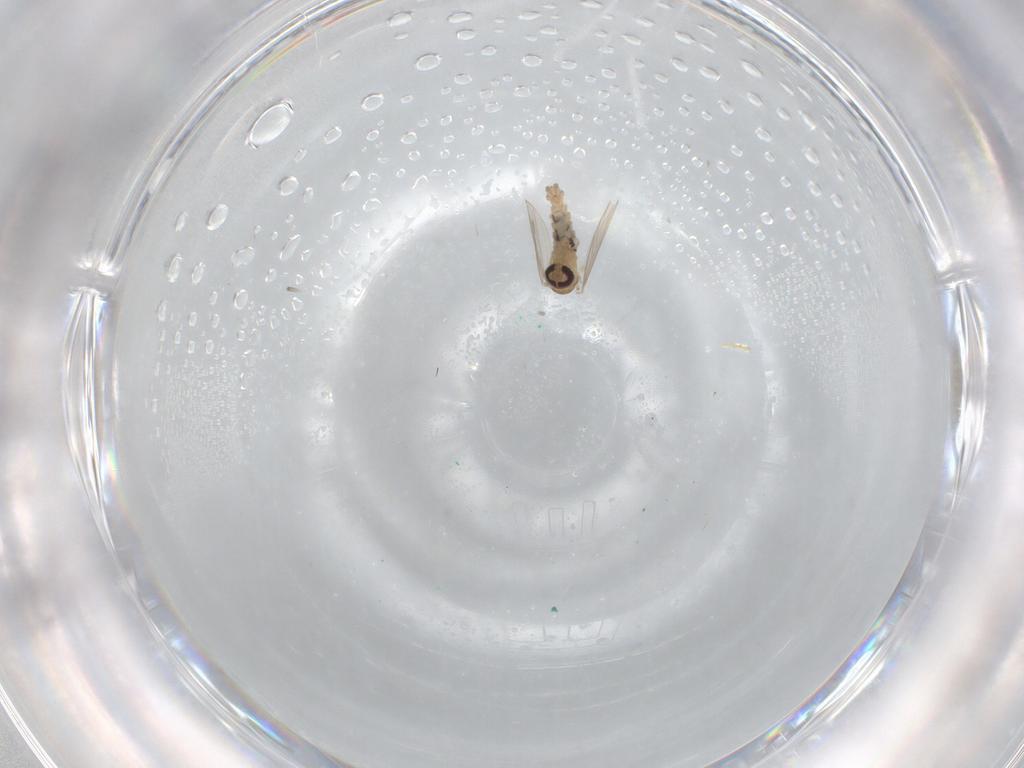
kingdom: Animalia
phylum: Arthropoda
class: Insecta
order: Diptera
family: Psychodidae
